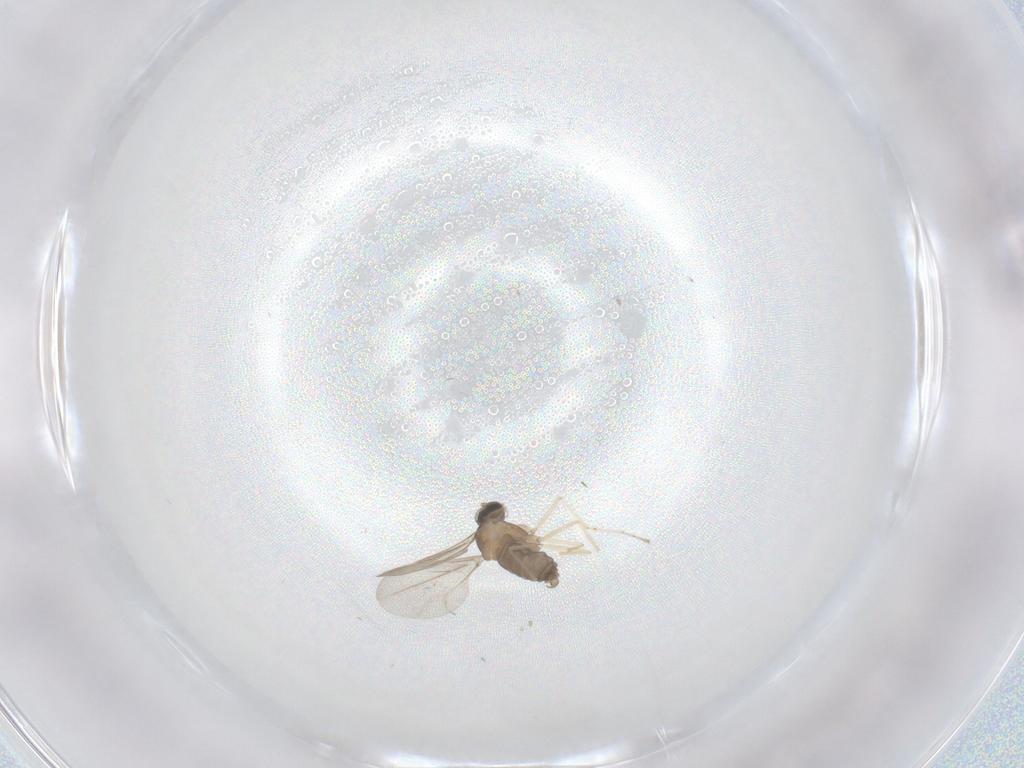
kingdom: Animalia
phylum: Arthropoda
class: Insecta
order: Diptera
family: Cecidomyiidae
